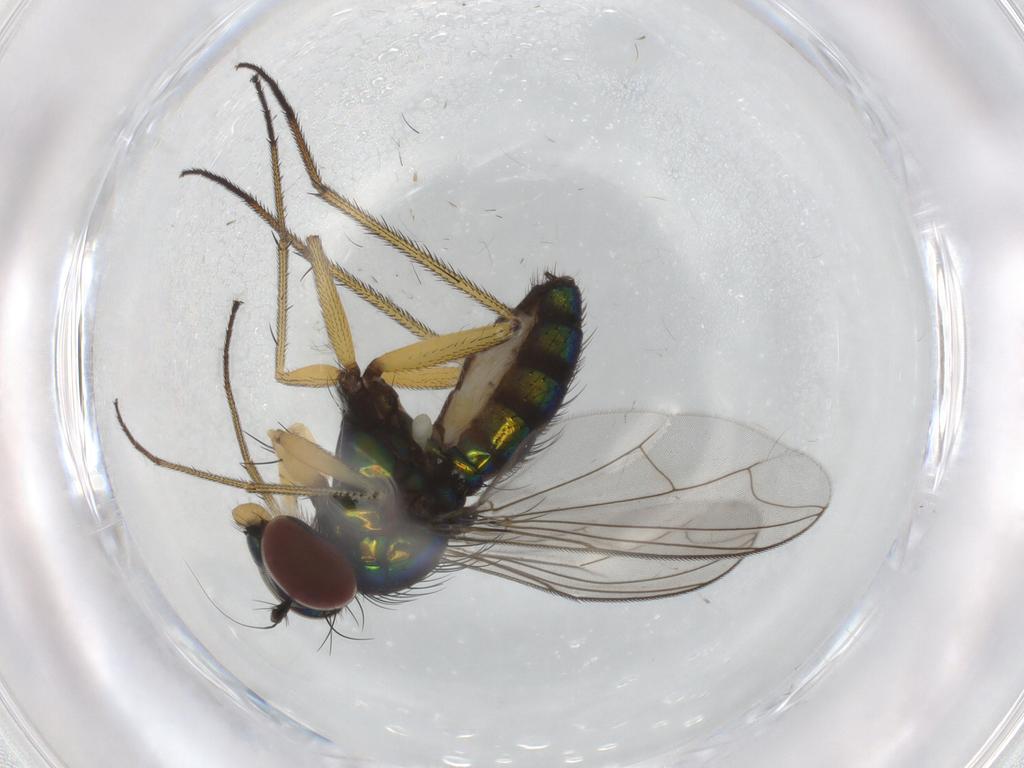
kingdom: Animalia
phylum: Arthropoda
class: Insecta
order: Diptera
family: Dolichopodidae
